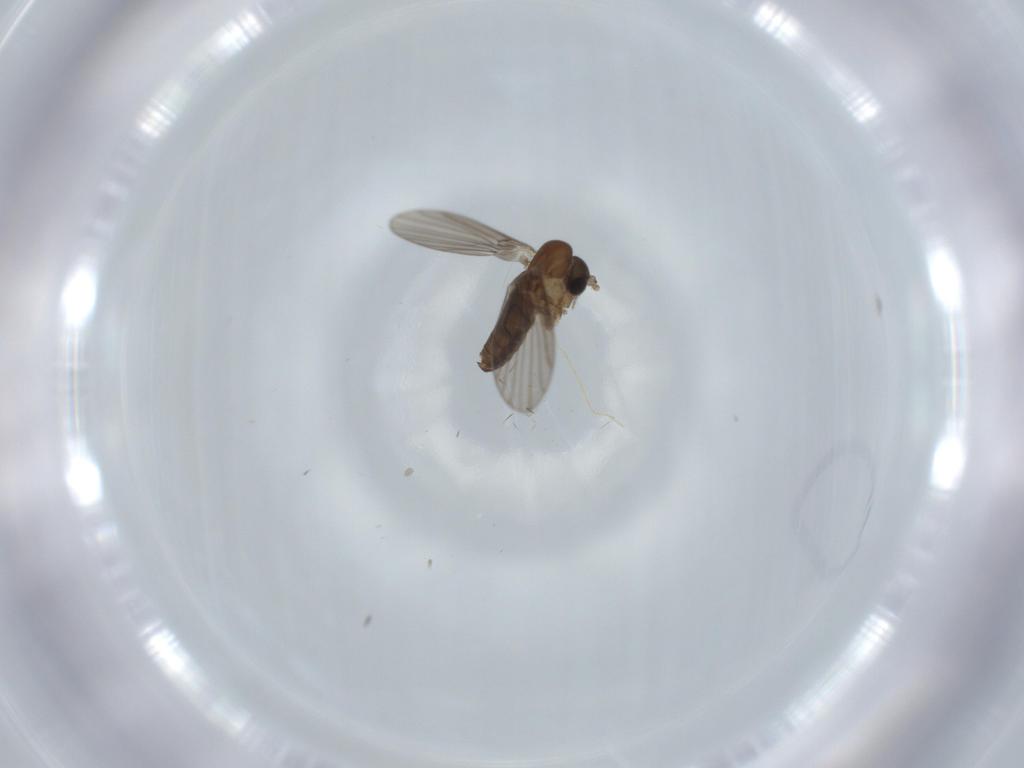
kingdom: Animalia
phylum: Arthropoda
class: Insecta
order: Diptera
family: Psychodidae
